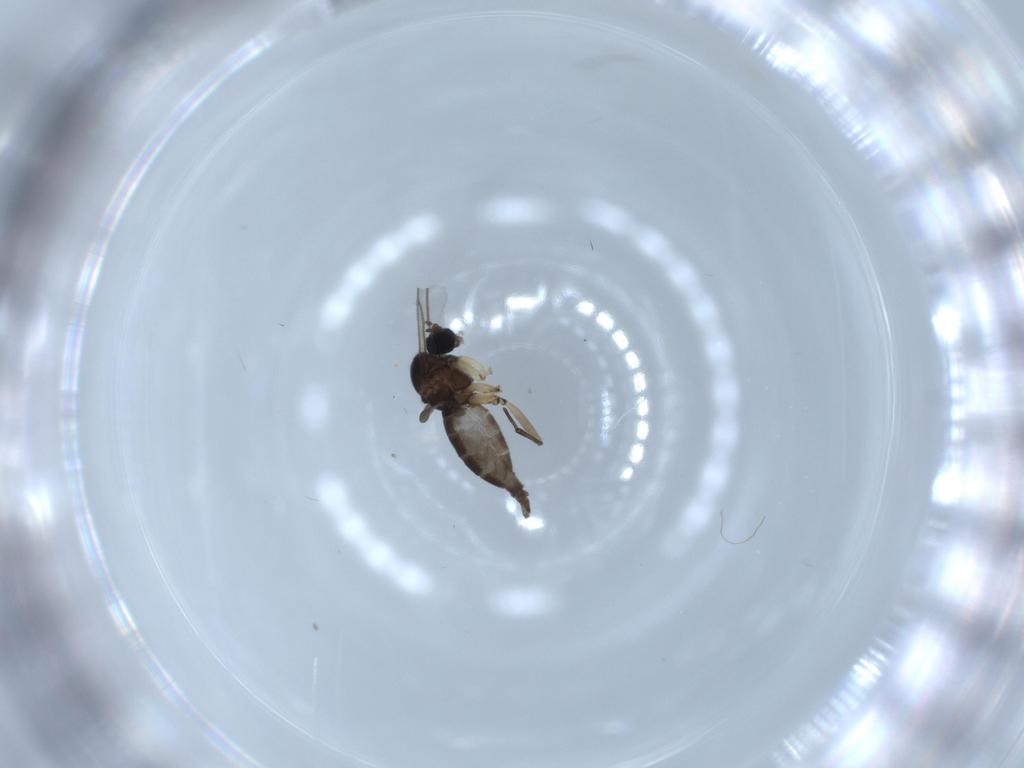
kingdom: Animalia
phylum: Arthropoda
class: Insecta
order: Diptera
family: Sciaridae
